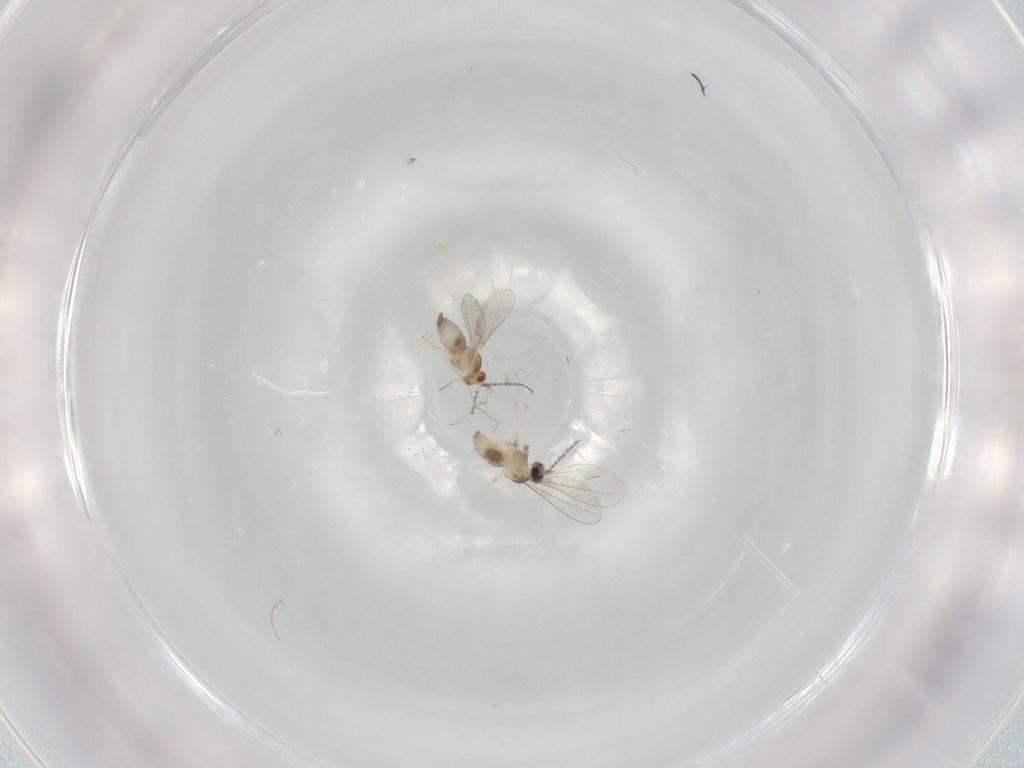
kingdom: Animalia
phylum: Arthropoda
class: Insecta
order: Diptera
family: Cecidomyiidae
